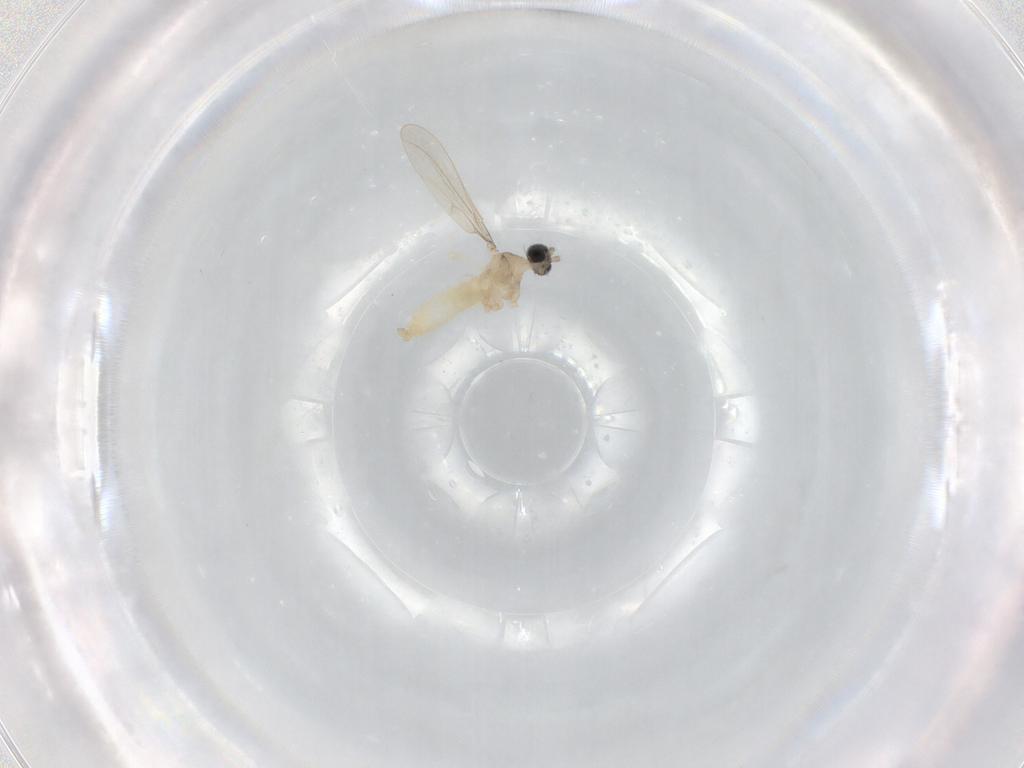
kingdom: Animalia
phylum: Arthropoda
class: Insecta
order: Diptera
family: Cecidomyiidae
